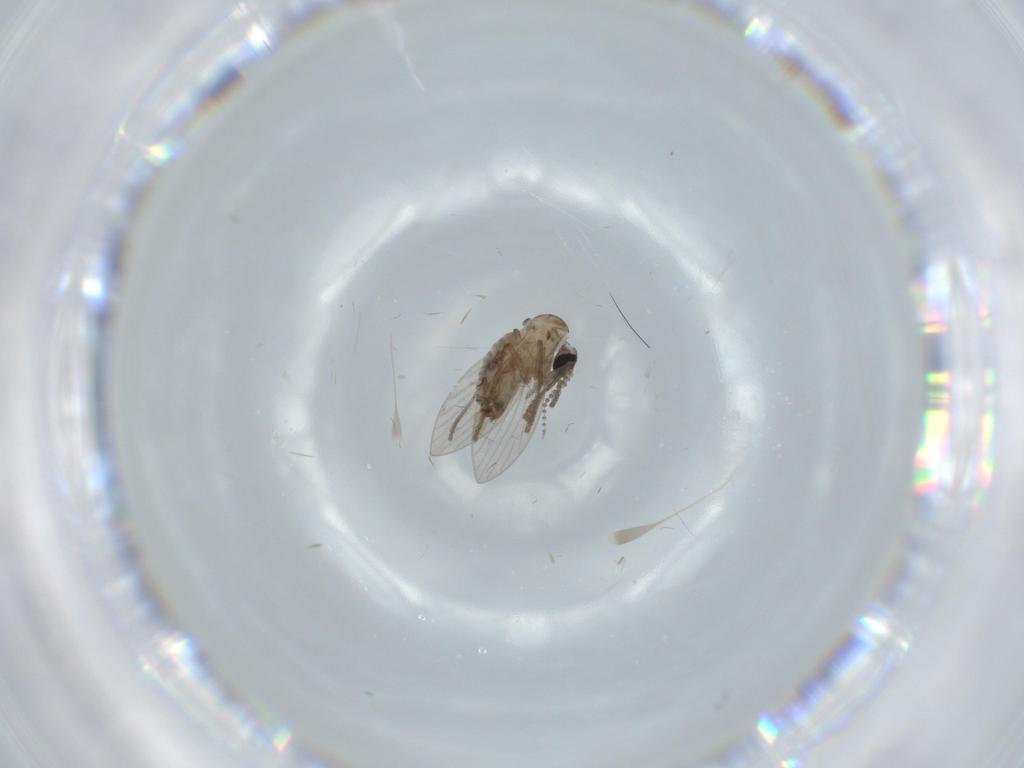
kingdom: Animalia
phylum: Arthropoda
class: Insecta
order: Diptera
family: Psychodidae
